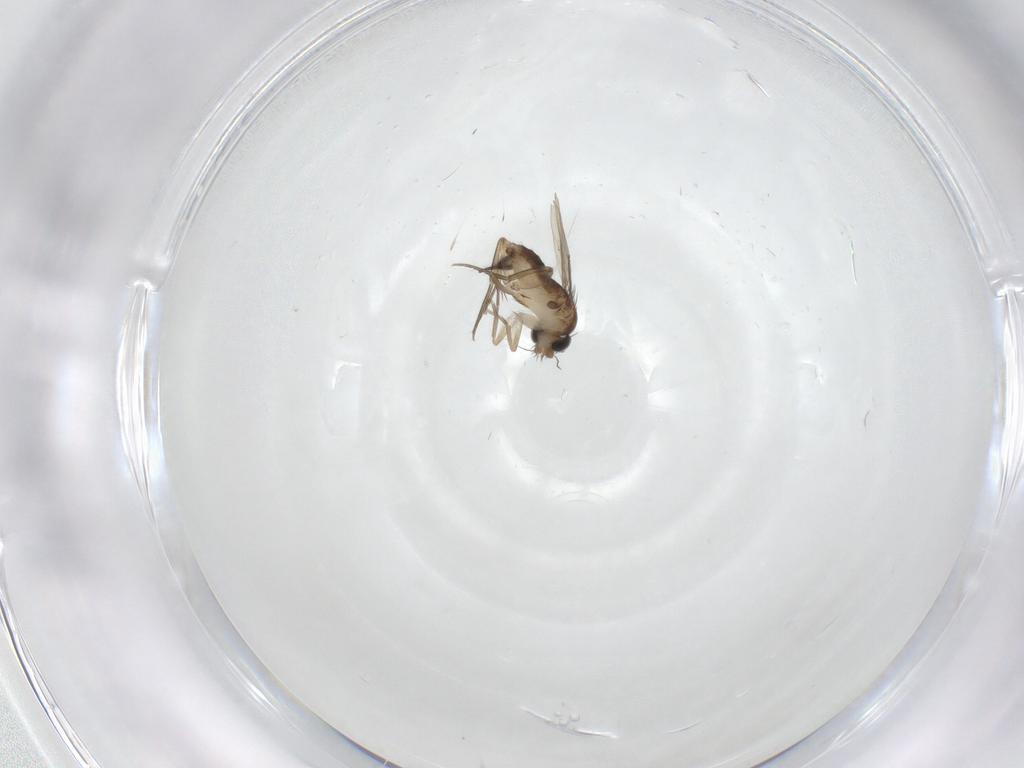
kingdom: Animalia
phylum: Arthropoda
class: Insecta
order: Diptera
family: Phoridae
